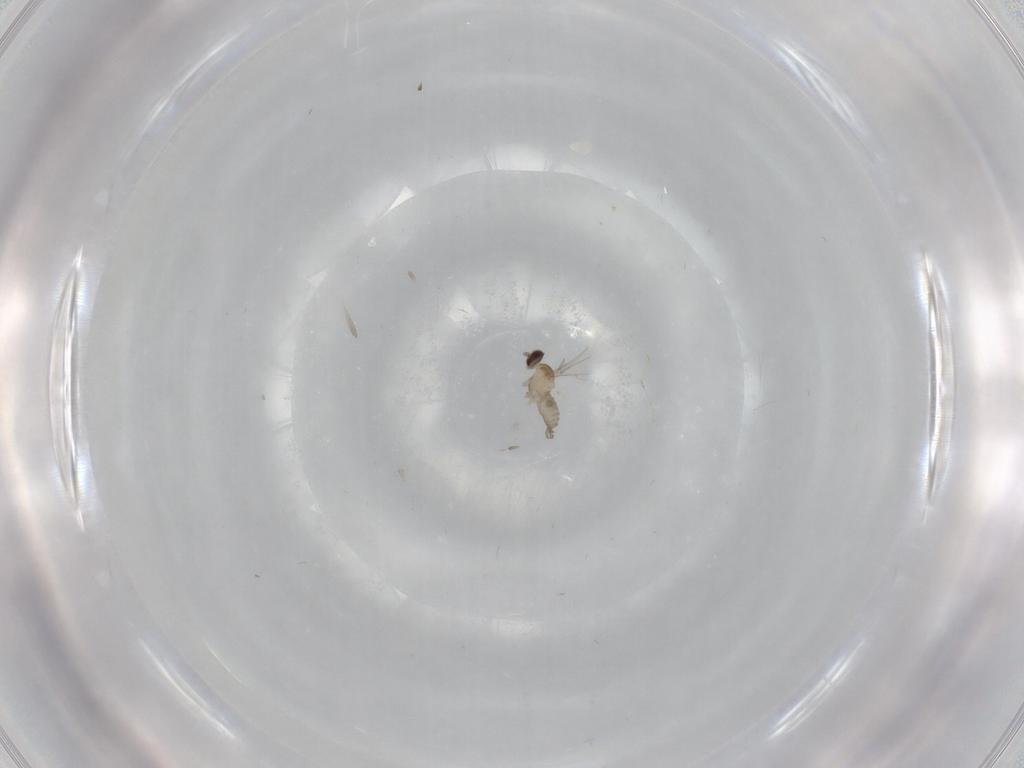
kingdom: Animalia
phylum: Arthropoda
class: Insecta
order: Diptera
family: Cecidomyiidae
